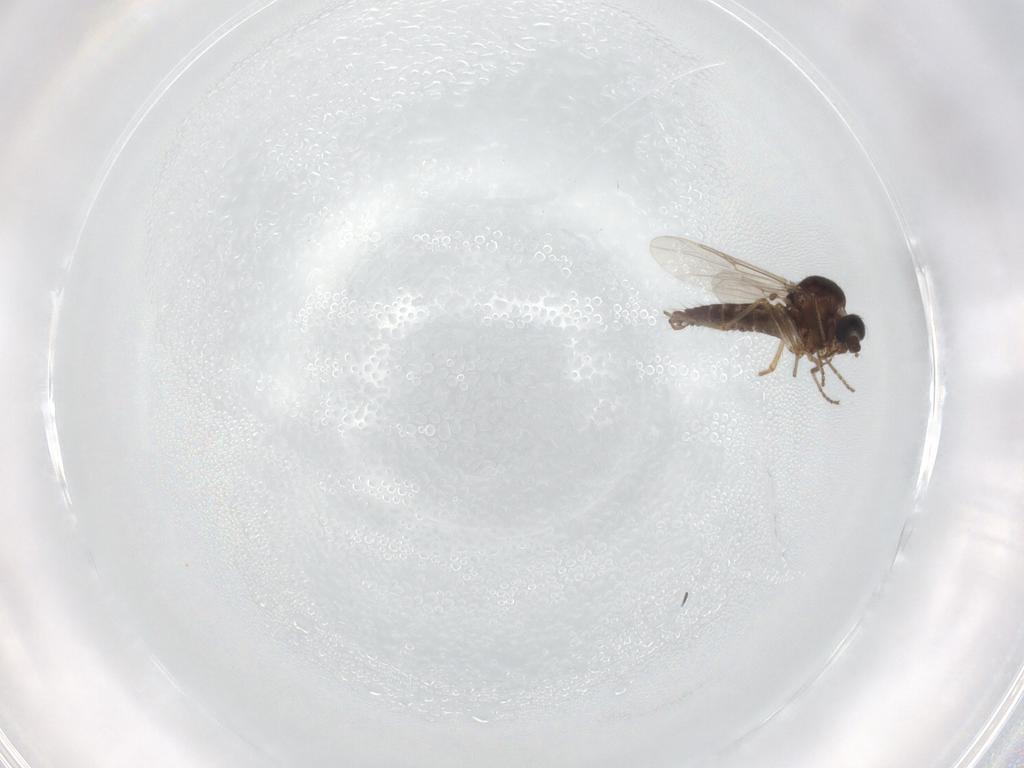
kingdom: Animalia
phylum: Arthropoda
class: Insecta
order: Diptera
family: Ceratopogonidae
